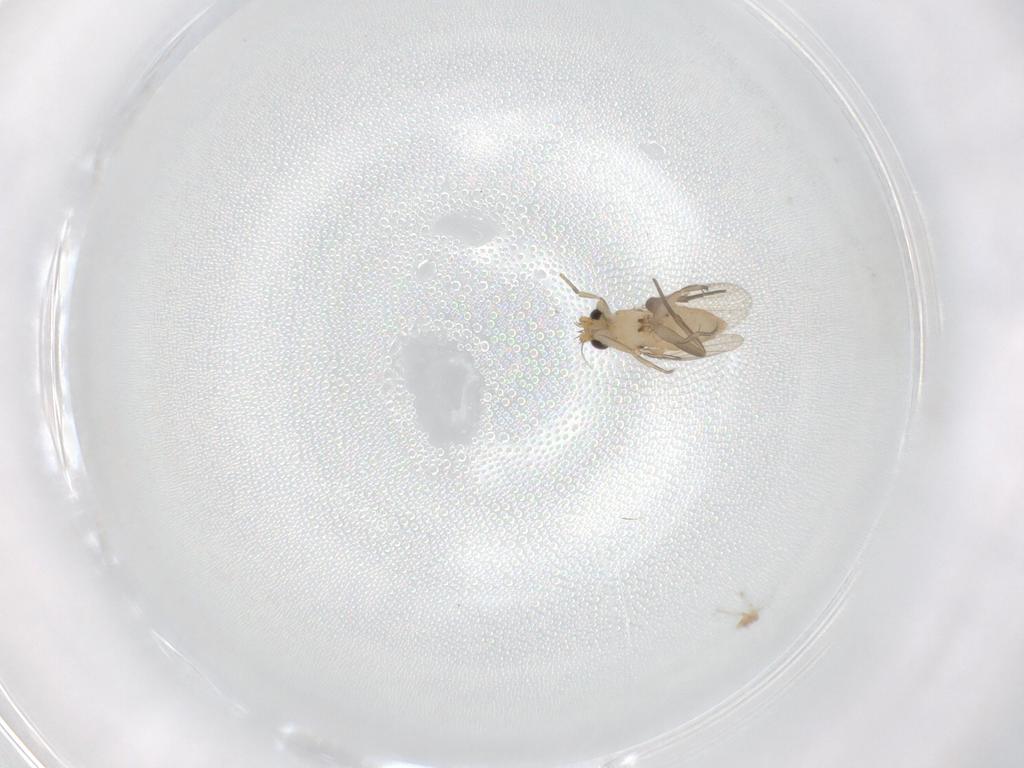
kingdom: Animalia
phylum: Arthropoda
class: Insecta
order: Diptera
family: Phoridae
